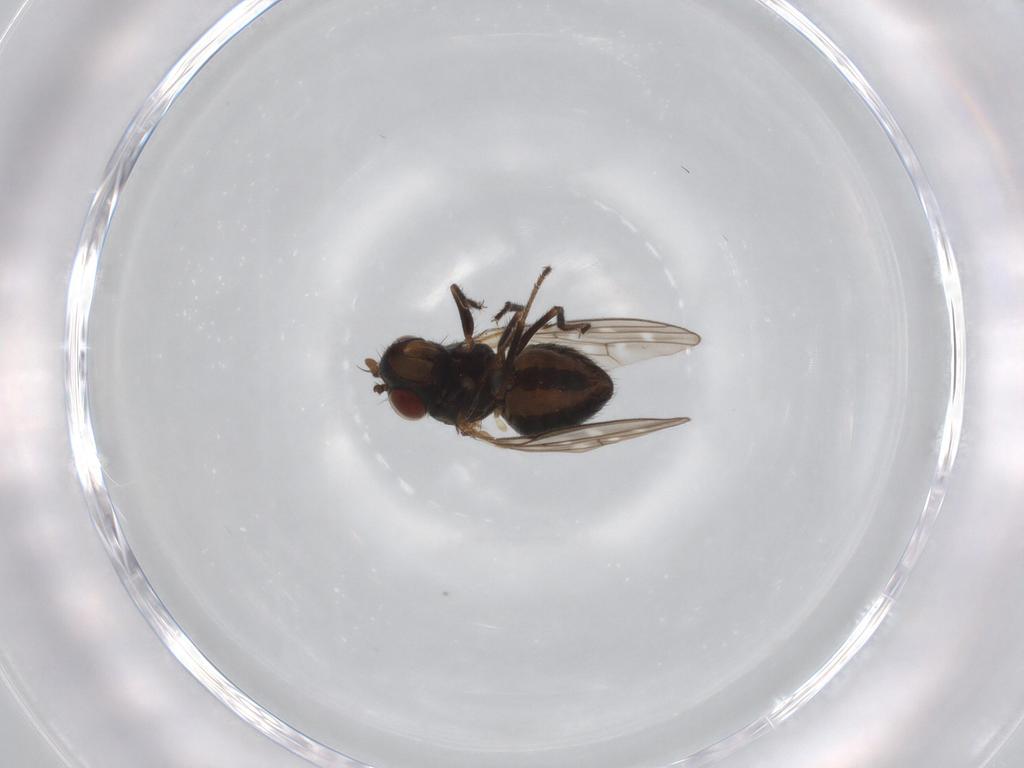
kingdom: Animalia
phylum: Arthropoda
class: Insecta
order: Diptera
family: Ephydridae
